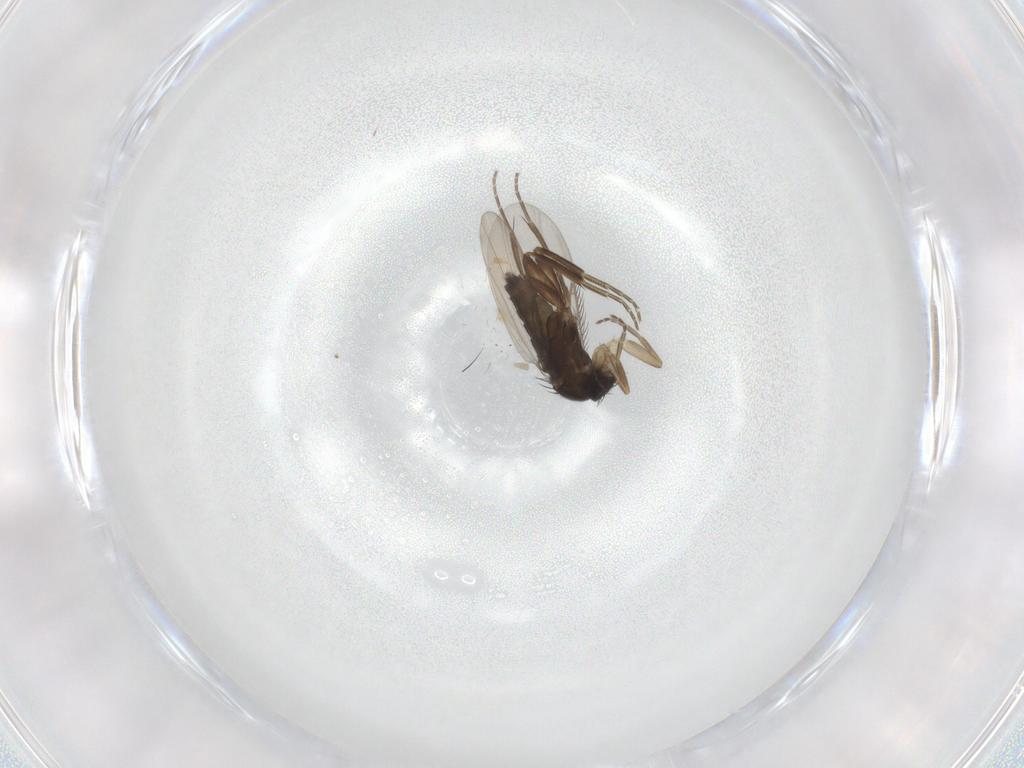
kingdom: Animalia
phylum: Arthropoda
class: Insecta
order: Diptera
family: Phoridae
